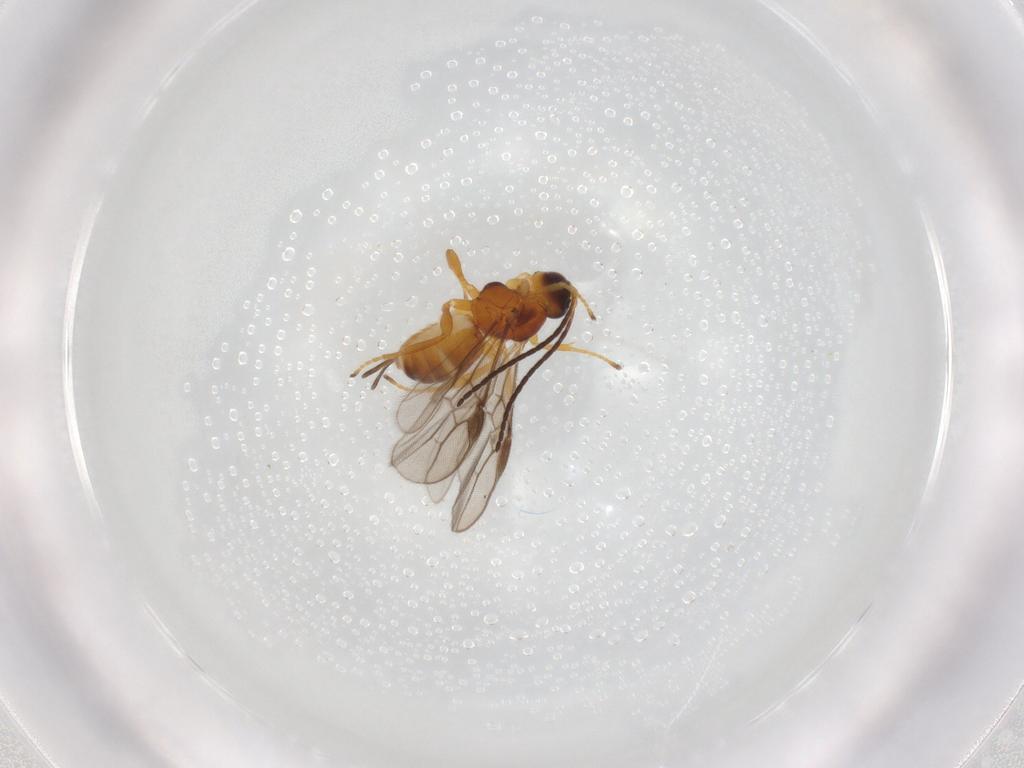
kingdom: Animalia
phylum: Arthropoda
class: Insecta
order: Hymenoptera
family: Braconidae
